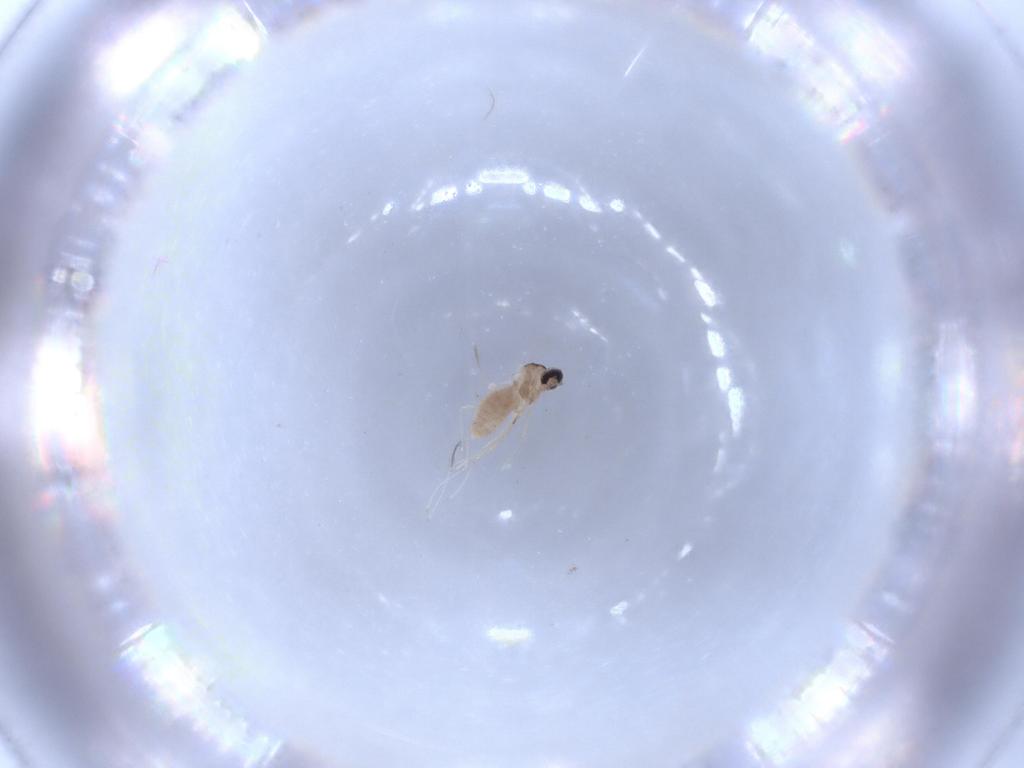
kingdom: Animalia
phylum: Arthropoda
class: Insecta
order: Diptera
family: Cecidomyiidae
